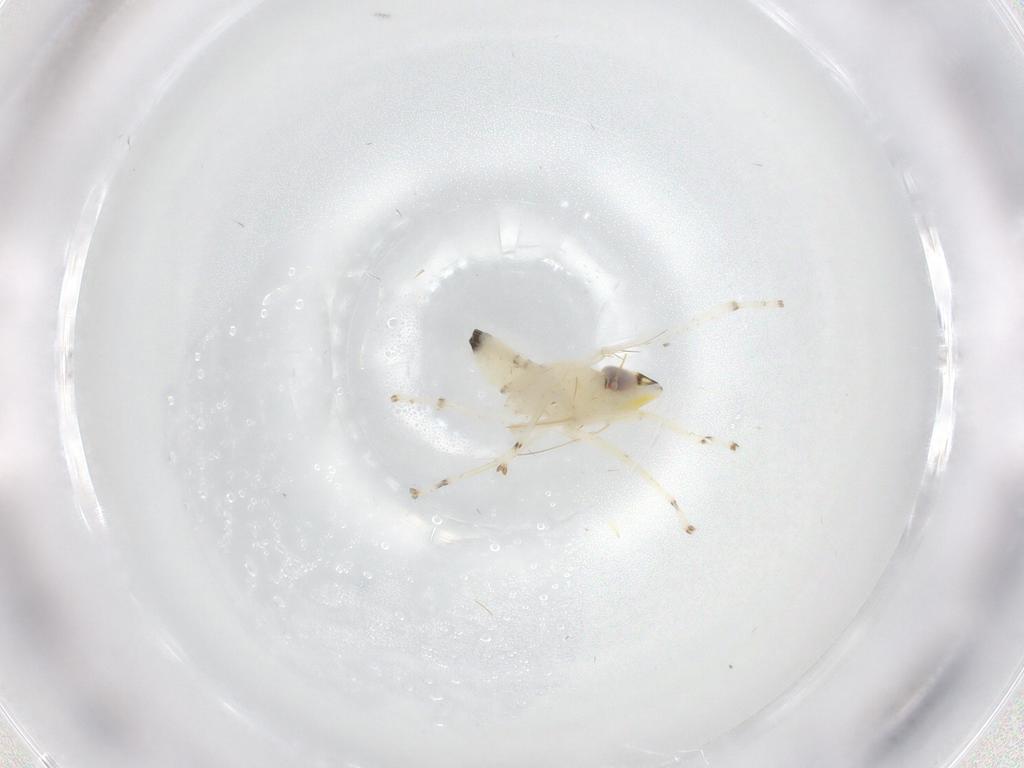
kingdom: Animalia
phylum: Arthropoda
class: Insecta
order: Hemiptera
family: Cicadellidae
